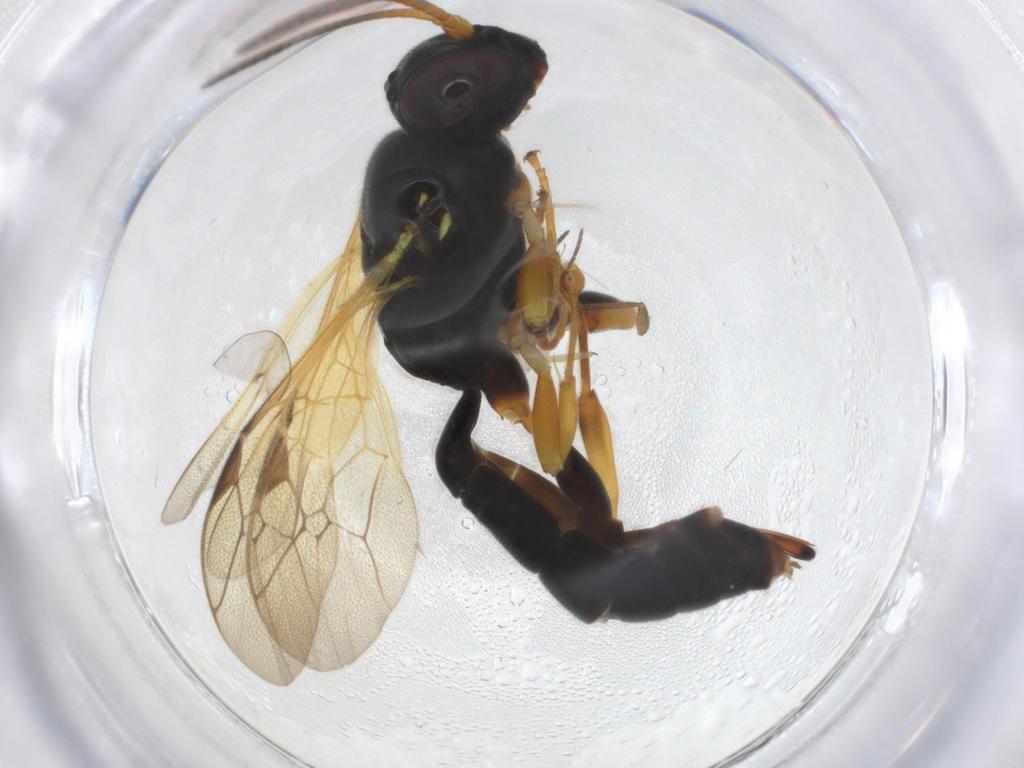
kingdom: Animalia
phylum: Arthropoda
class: Insecta
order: Hymenoptera
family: Ichneumonidae
